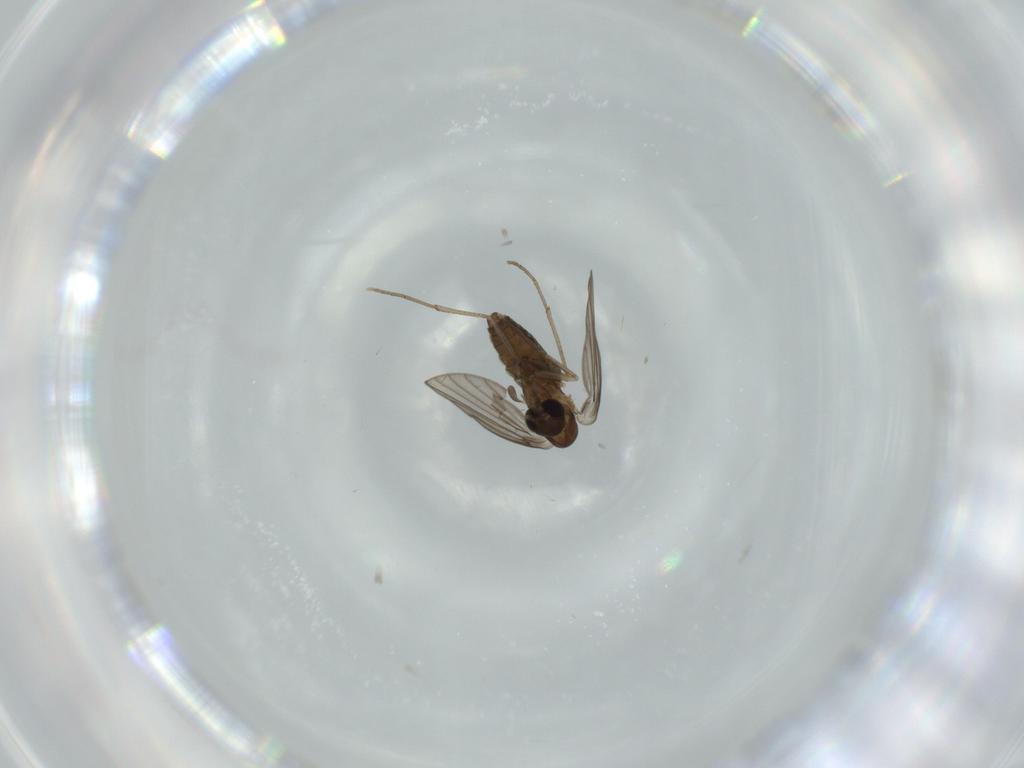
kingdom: Animalia
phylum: Arthropoda
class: Insecta
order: Diptera
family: Psychodidae
